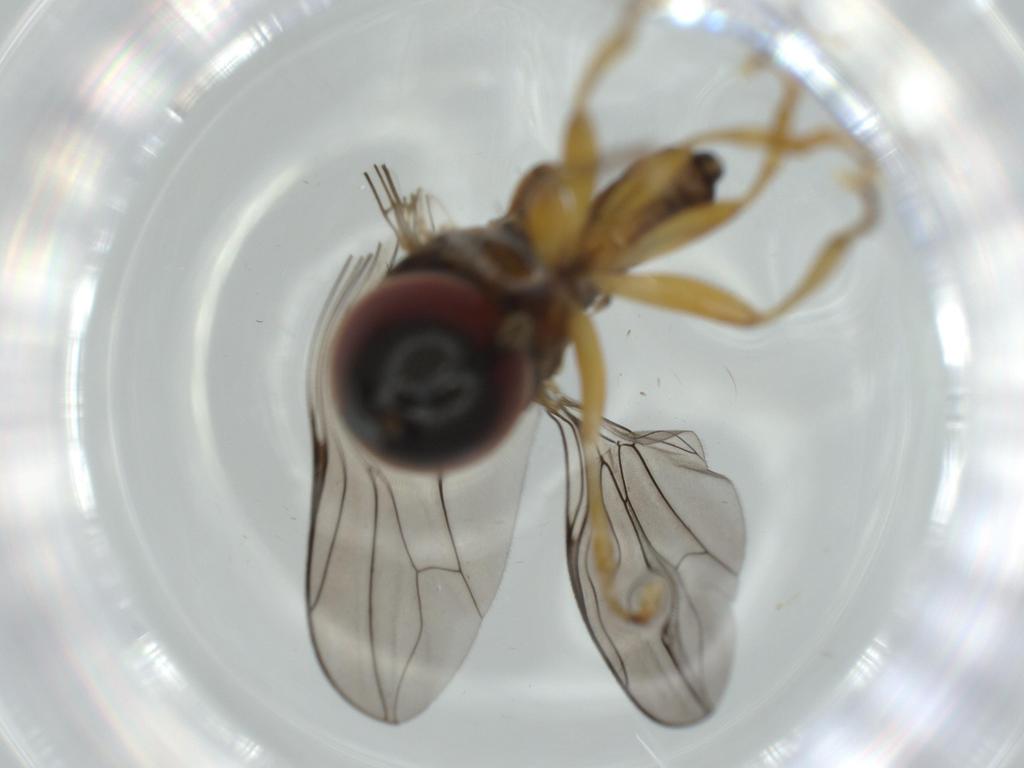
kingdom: Animalia
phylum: Arthropoda
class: Insecta
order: Diptera
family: Pipunculidae
